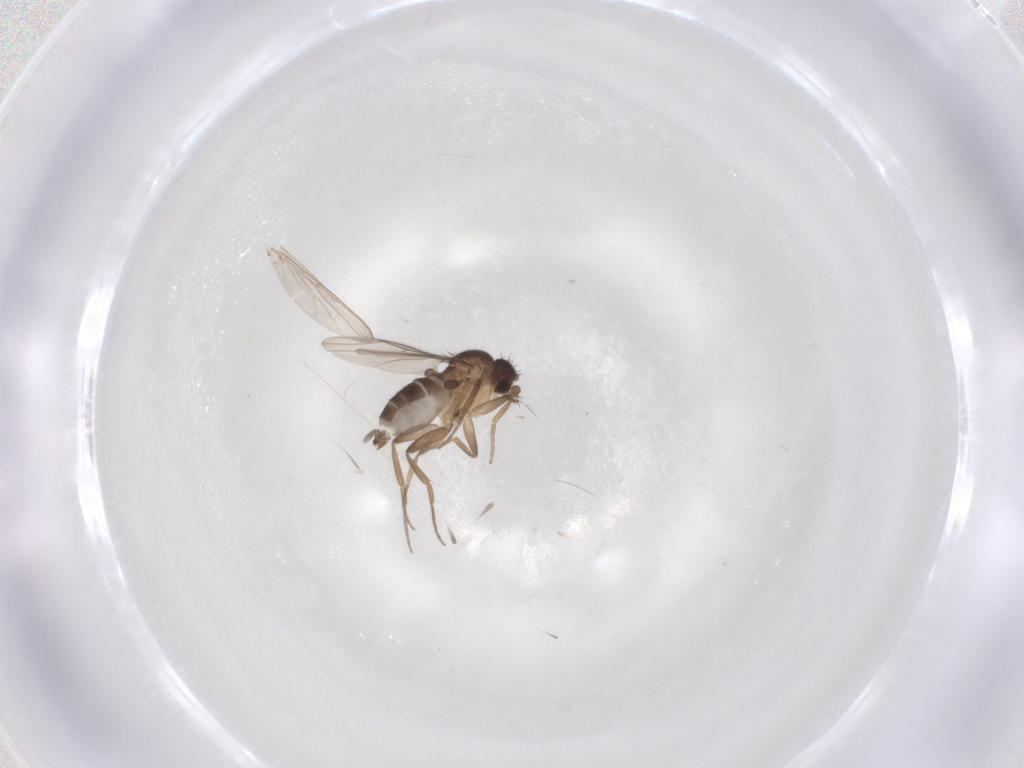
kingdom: Animalia
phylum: Arthropoda
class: Insecta
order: Diptera
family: Phoridae
